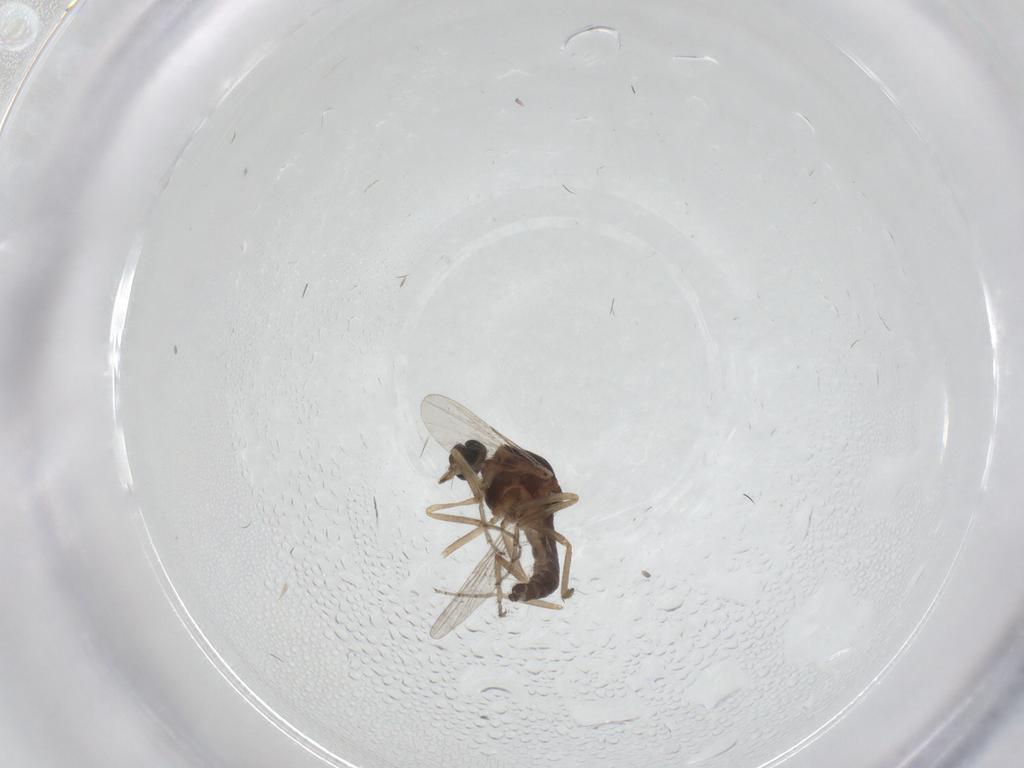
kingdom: Animalia
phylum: Arthropoda
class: Insecta
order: Diptera
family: Ceratopogonidae
